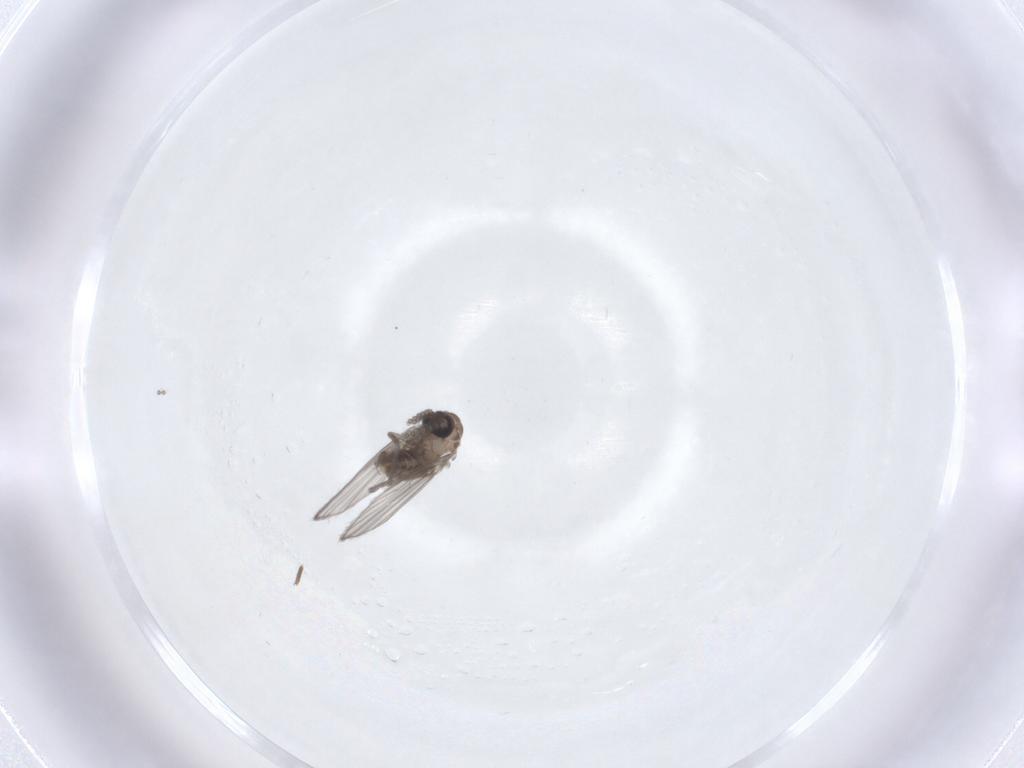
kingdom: Animalia
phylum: Arthropoda
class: Insecta
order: Diptera
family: Psychodidae
